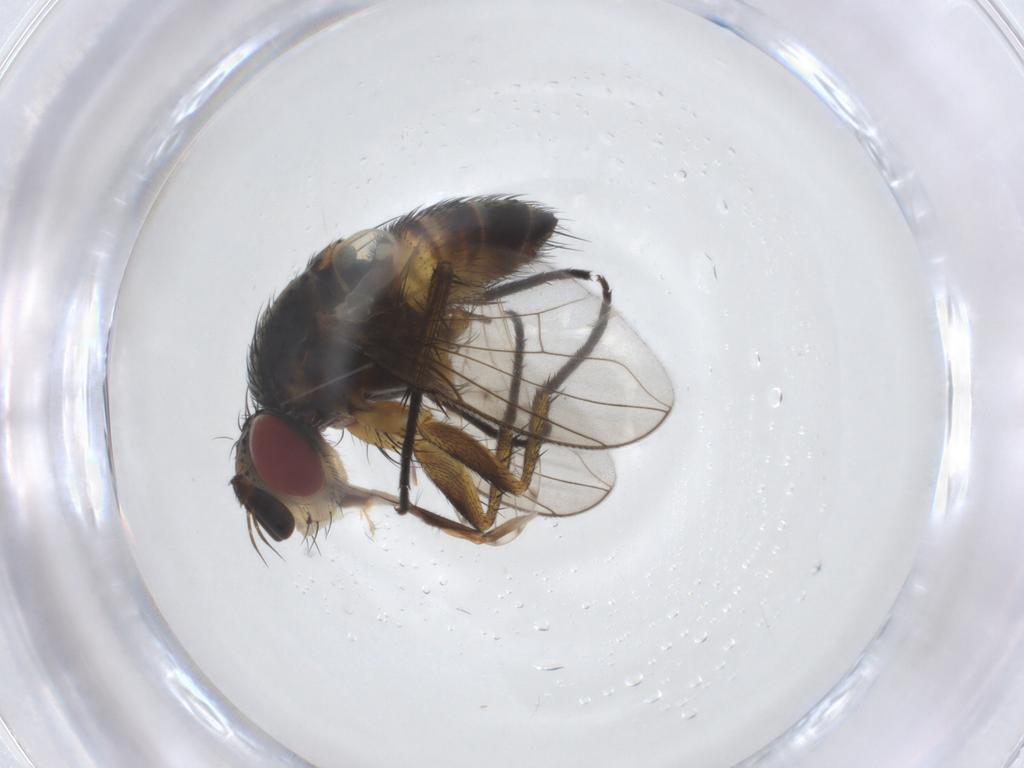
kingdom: Animalia
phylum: Arthropoda
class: Insecta
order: Diptera
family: Tachinidae
